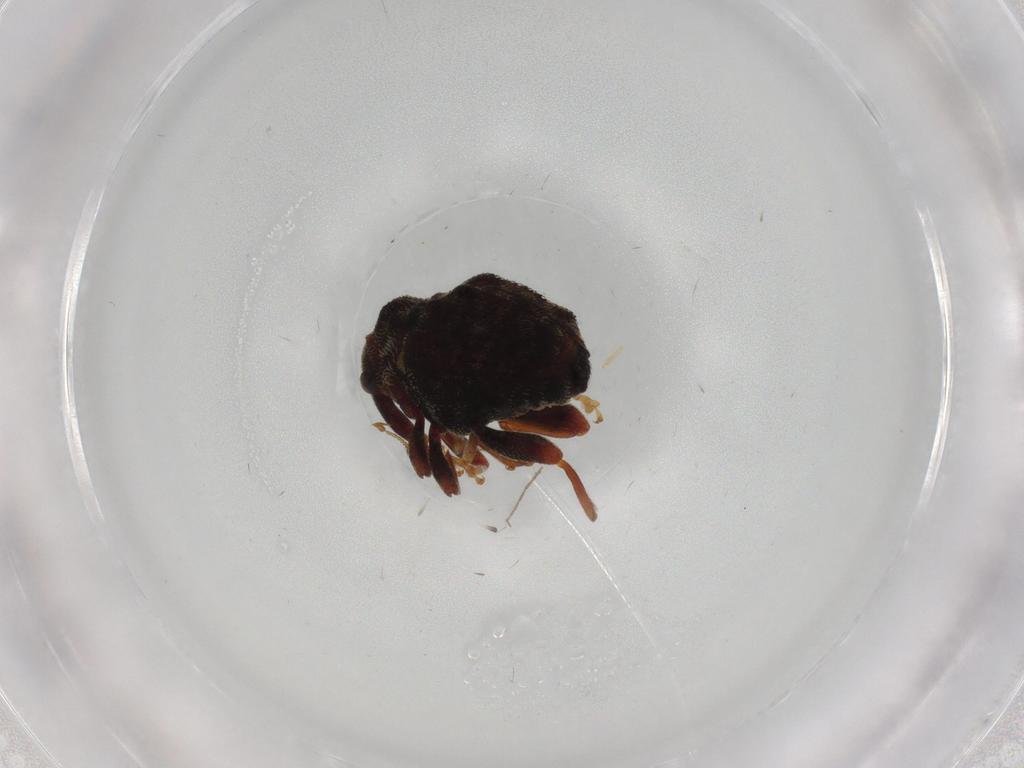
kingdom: Animalia
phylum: Arthropoda
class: Insecta
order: Coleoptera
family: Curculionidae
